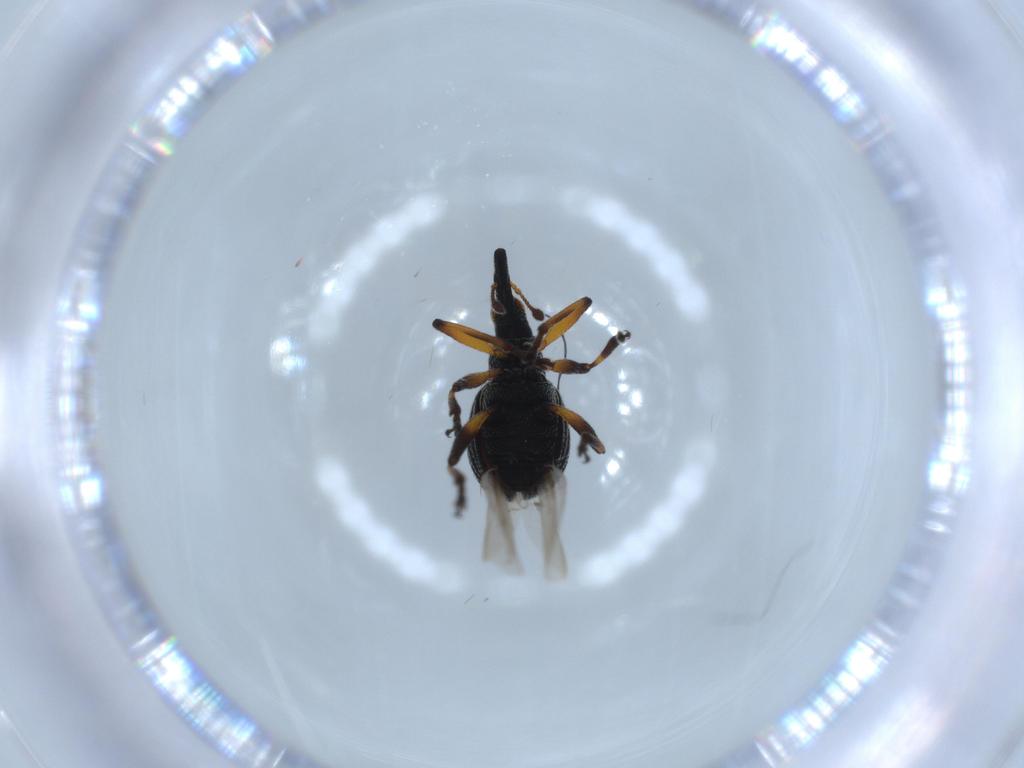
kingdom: Animalia
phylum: Arthropoda
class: Insecta
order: Coleoptera
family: Brentidae
